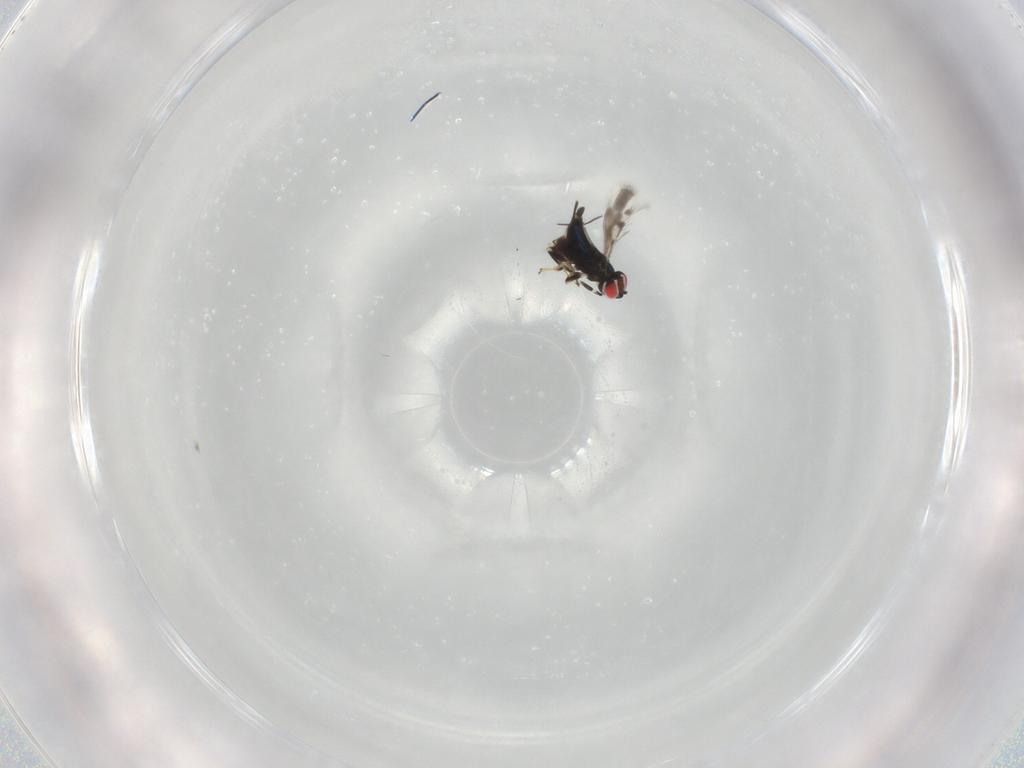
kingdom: Animalia
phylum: Arthropoda
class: Insecta
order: Hymenoptera
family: Azotidae
